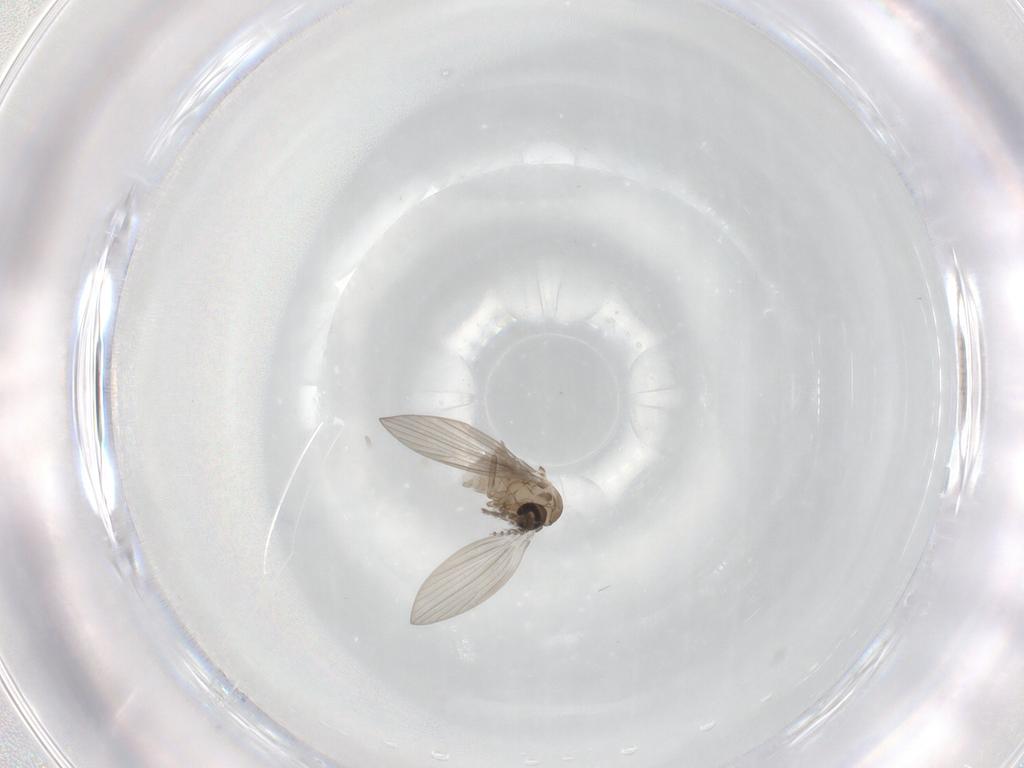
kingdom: Animalia
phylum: Arthropoda
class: Insecta
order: Diptera
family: Psychodidae
